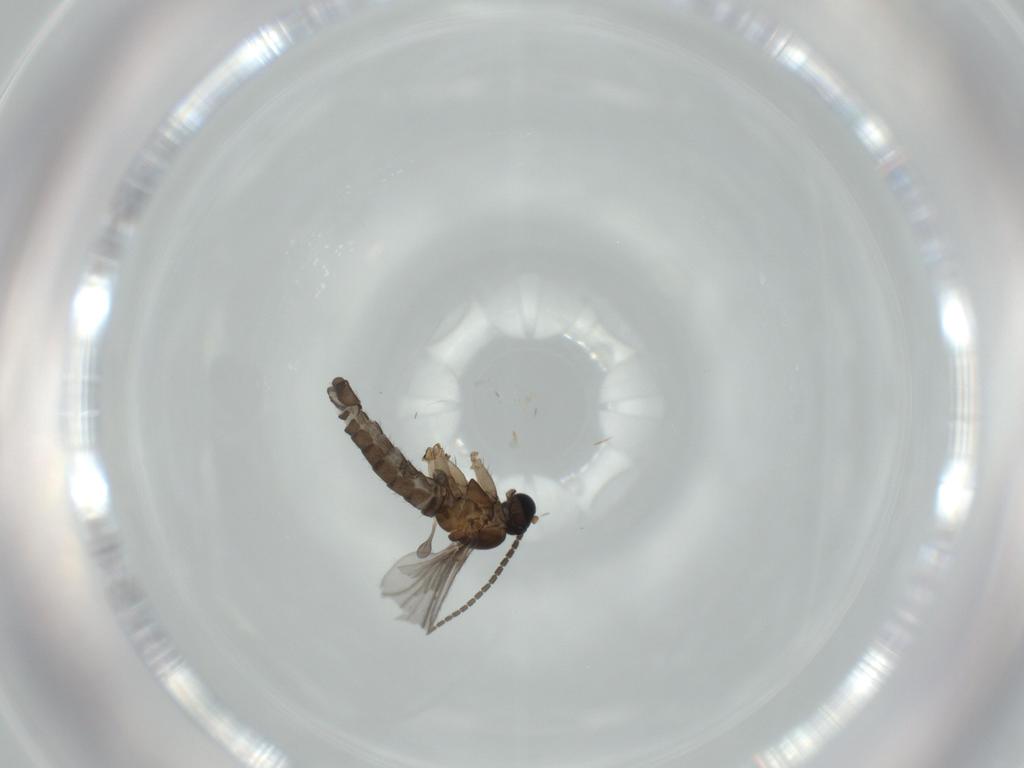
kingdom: Animalia
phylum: Arthropoda
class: Insecta
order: Diptera
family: Sciaridae
